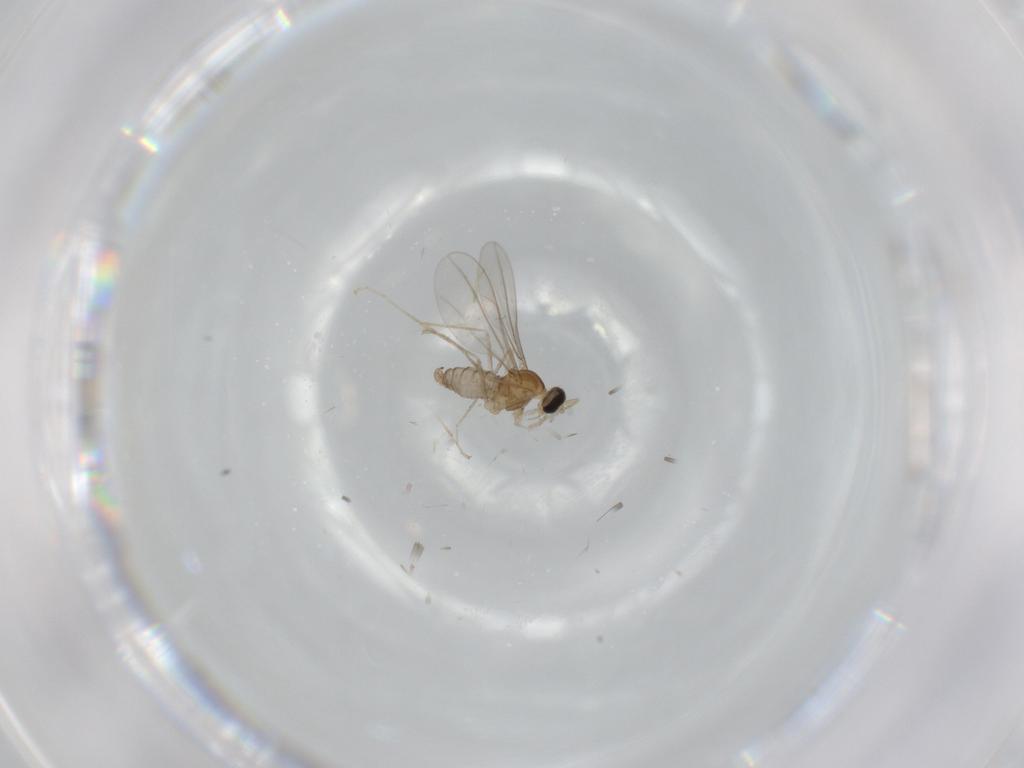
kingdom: Animalia
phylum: Arthropoda
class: Insecta
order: Diptera
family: Cecidomyiidae
